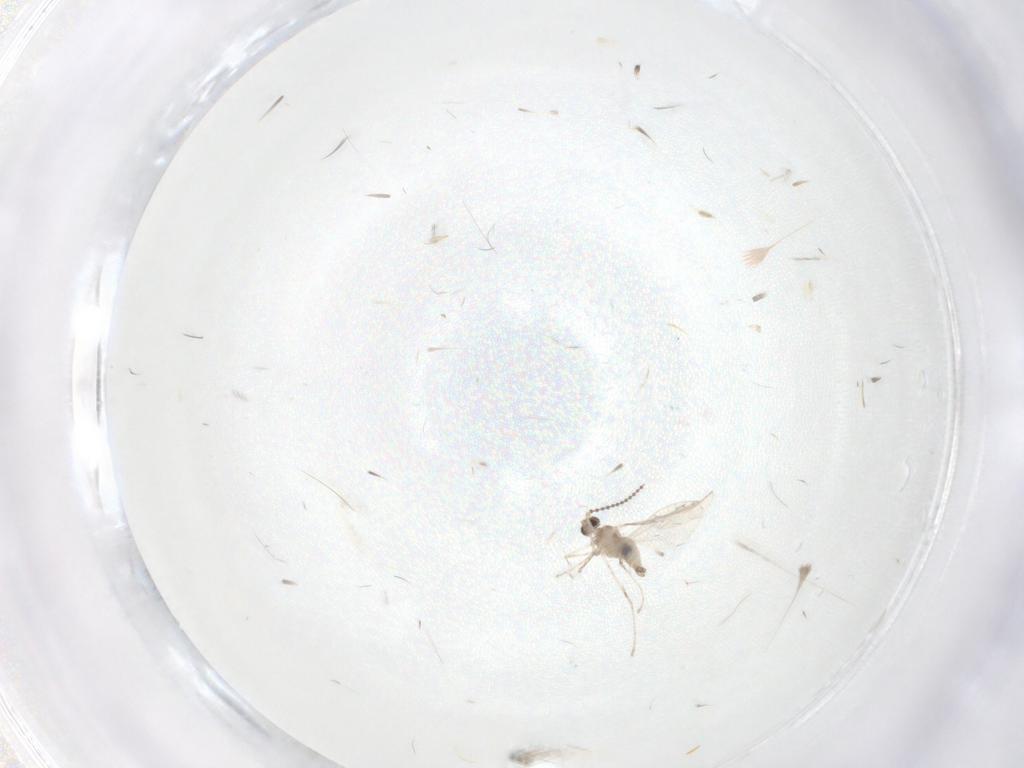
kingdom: Animalia
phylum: Arthropoda
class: Insecta
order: Diptera
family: Cecidomyiidae
